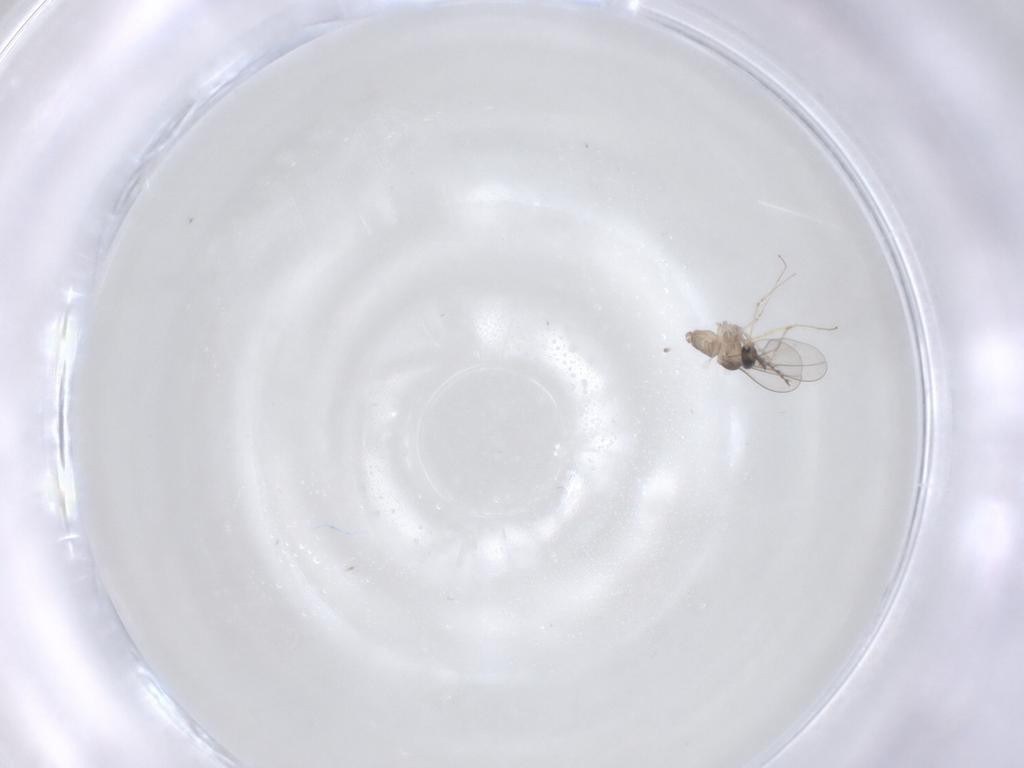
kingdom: Animalia
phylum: Arthropoda
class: Insecta
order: Diptera
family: Cecidomyiidae
